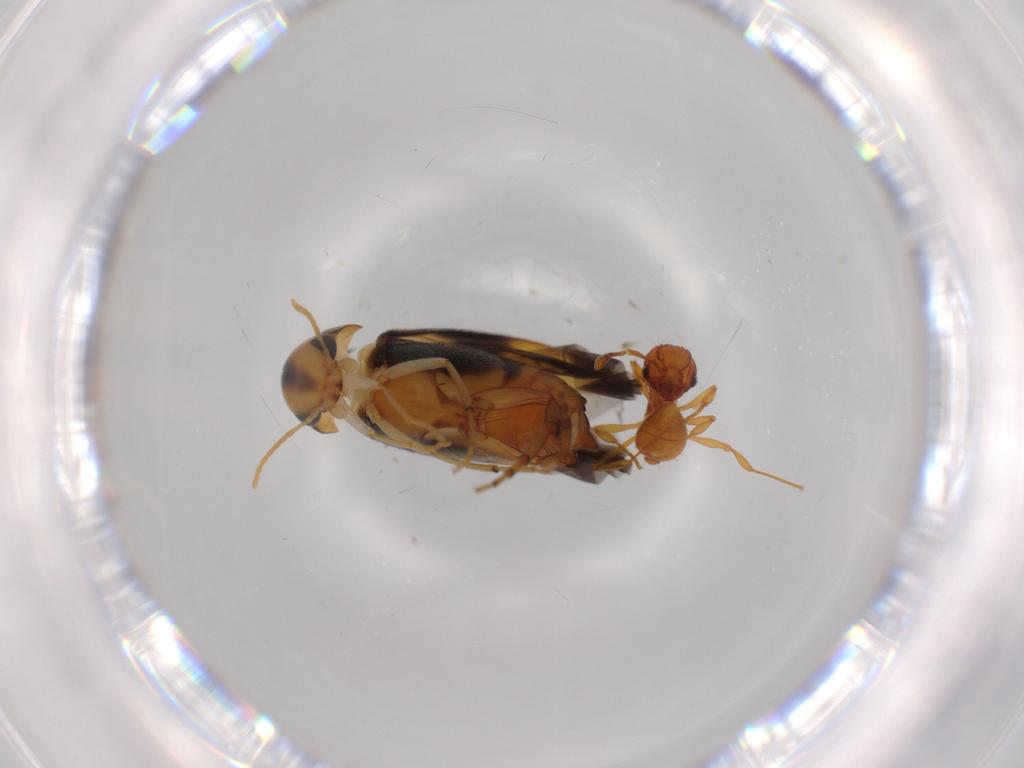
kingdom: Animalia
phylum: Arthropoda
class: Insecta
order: Coleoptera
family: Mordellidae
